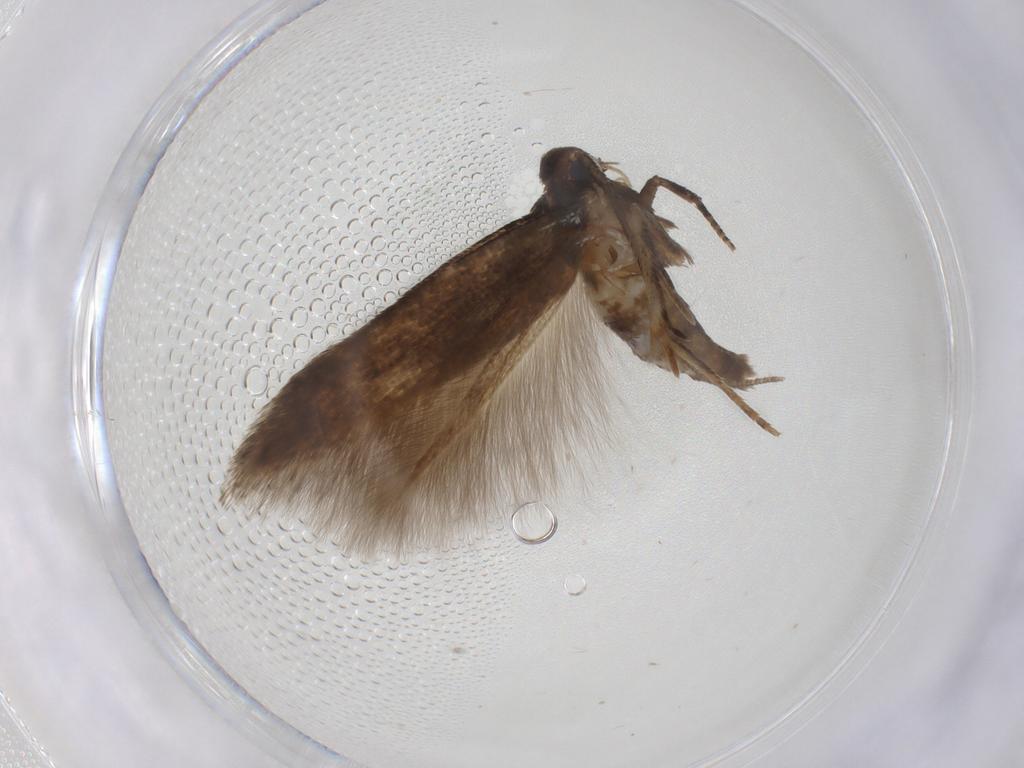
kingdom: Animalia
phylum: Arthropoda
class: Insecta
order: Lepidoptera
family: Cosmopterigidae
